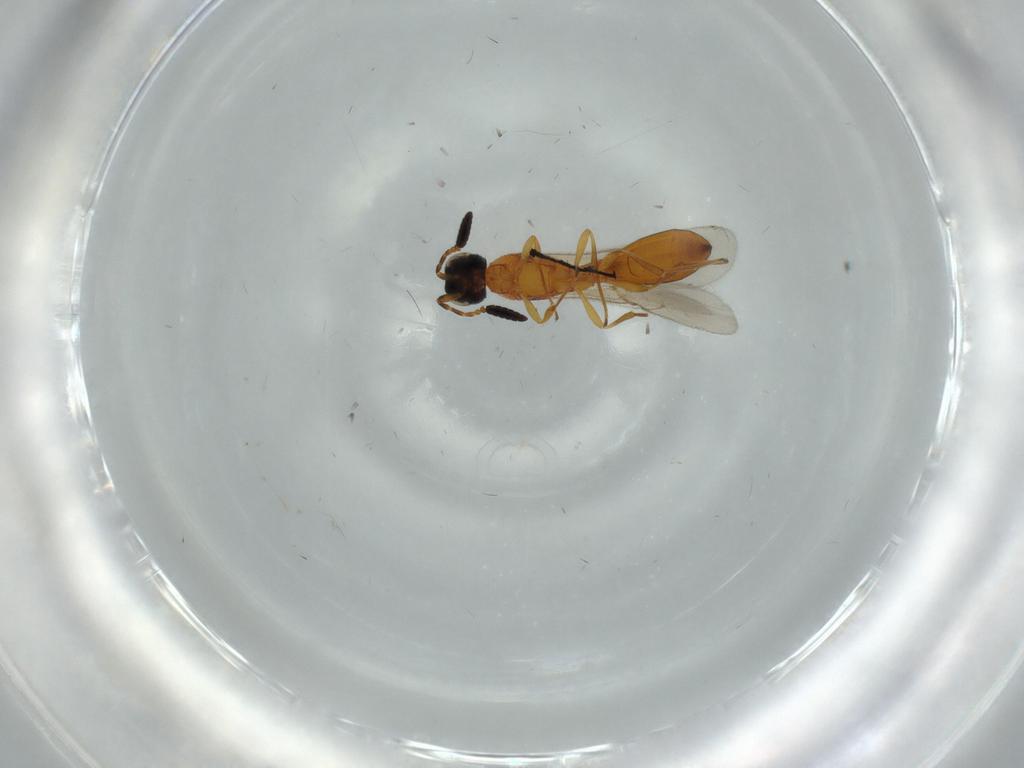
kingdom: Animalia
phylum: Arthropoda
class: Insecta
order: Hymenoptera
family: Scelionidae
